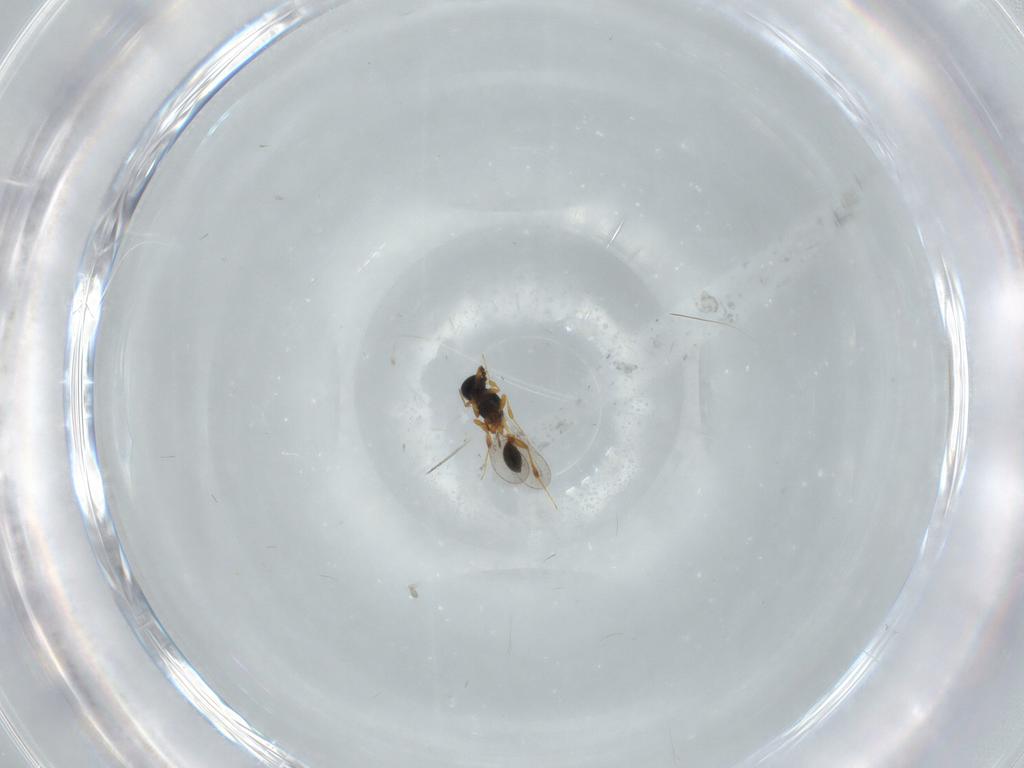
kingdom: Animalia
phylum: Arthropoda
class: Insecta
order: Hymenoptera
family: Platygastridae
